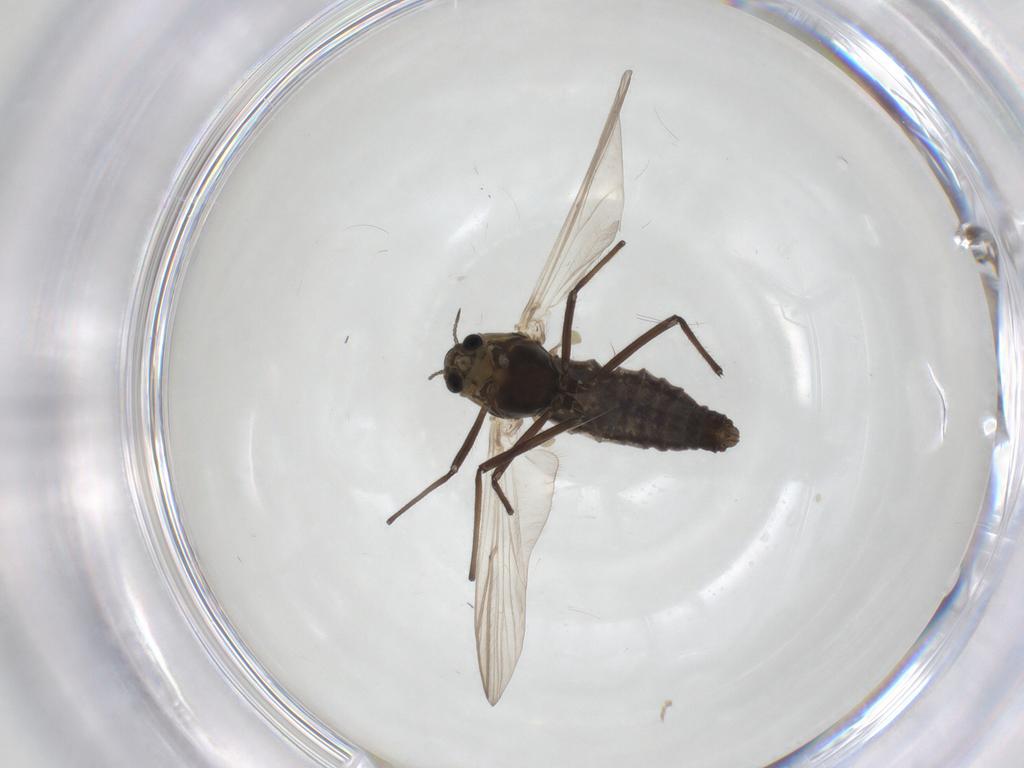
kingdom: Animalia
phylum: Arthropoda
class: Insecta
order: Diptera
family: Chironomidae
